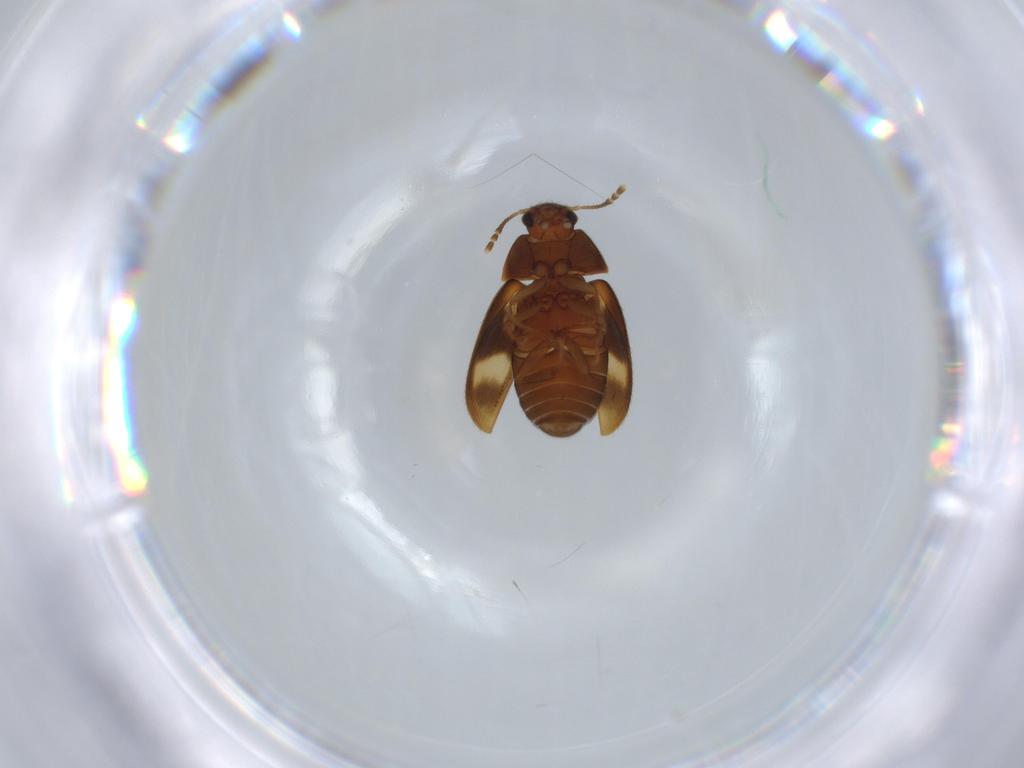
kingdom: Animalia
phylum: Arthropoda
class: Insecta
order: Coleoptera
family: Mycetophagidae
